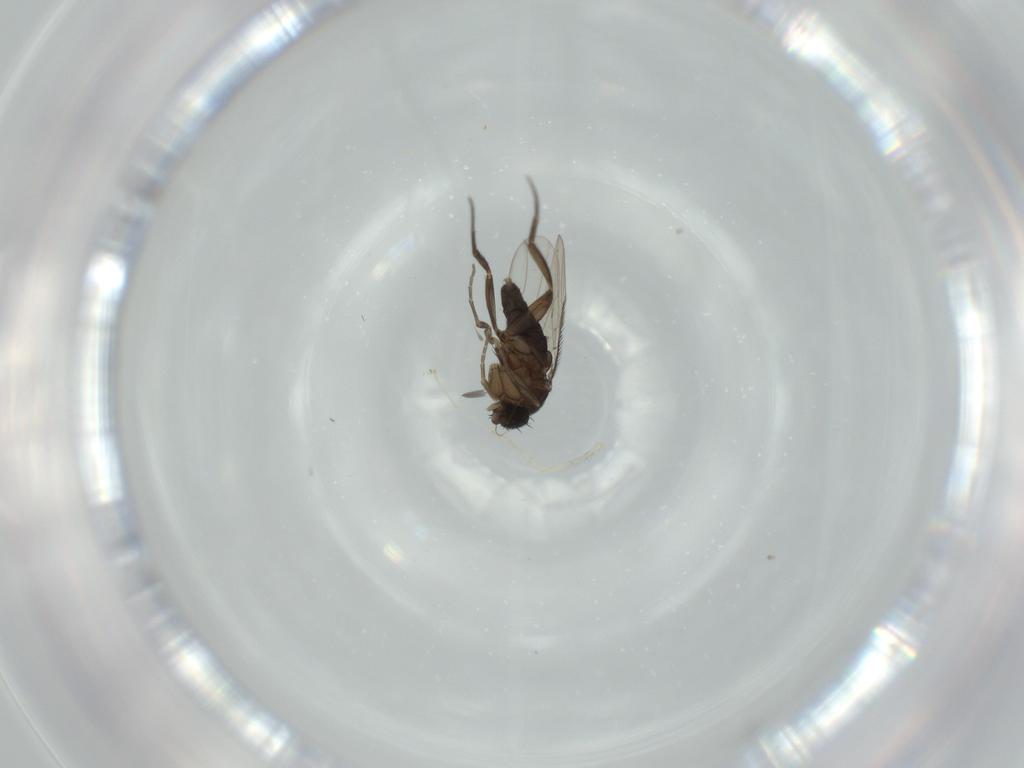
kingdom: Animalia
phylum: Arthropoda
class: Insecta
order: Diptera
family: Phoridae
